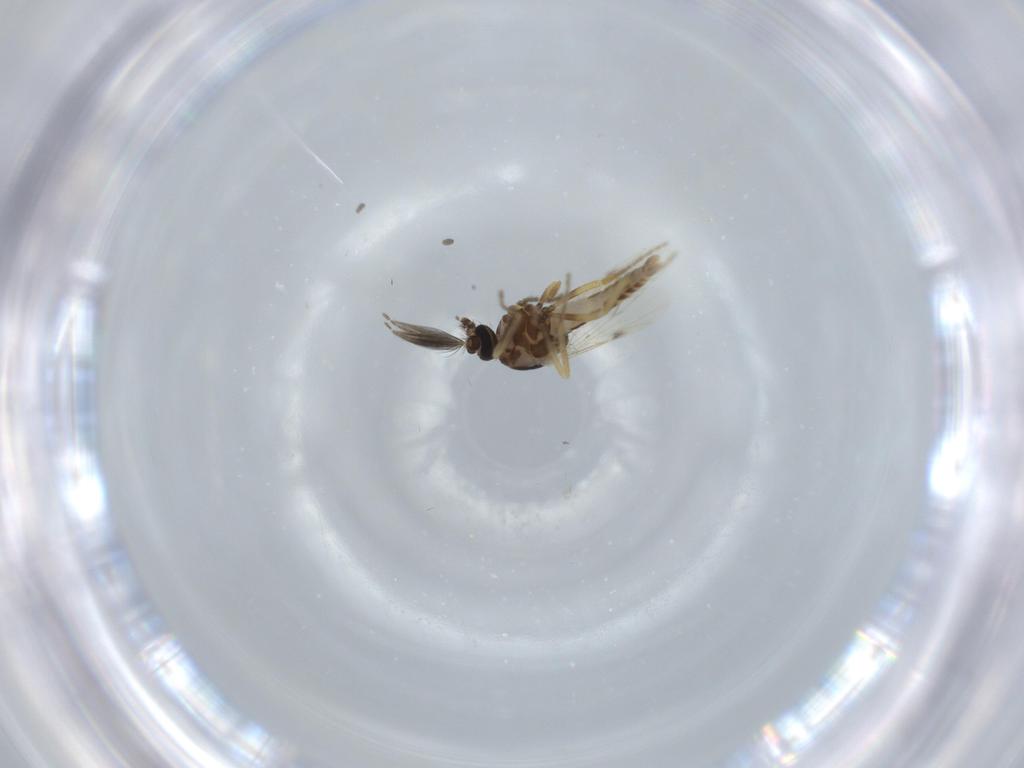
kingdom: Animalia
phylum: Arthropoda
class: Insecta
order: Diptera
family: Ceratopogonidae
